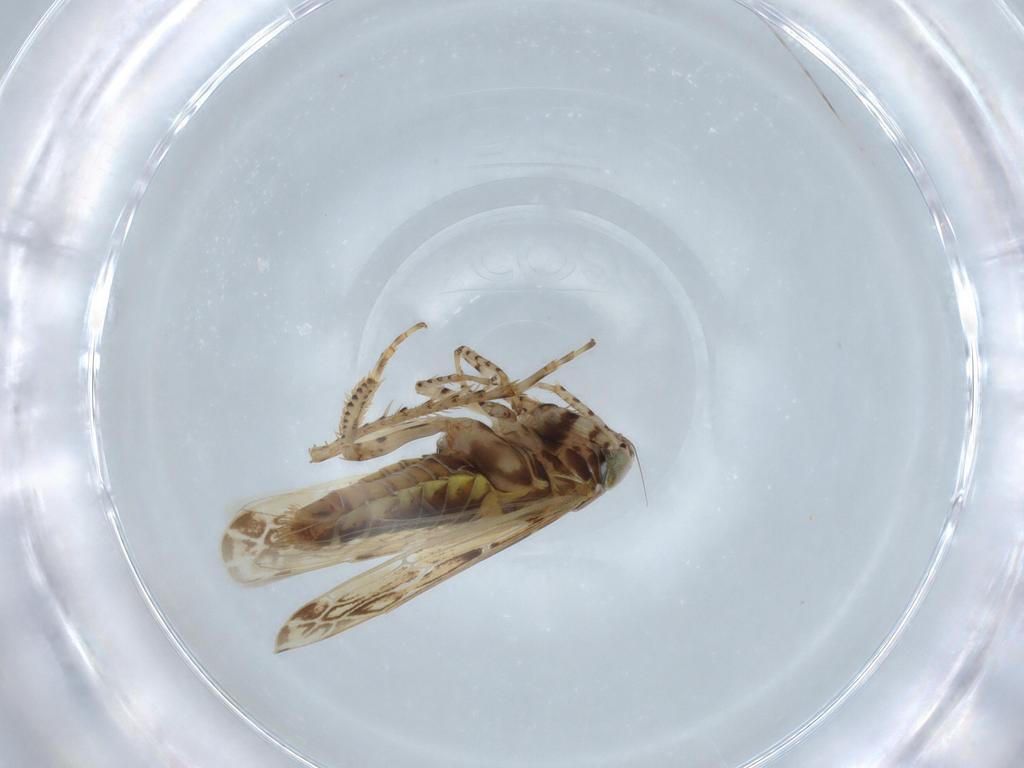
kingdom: Animalia
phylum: Arthropoda
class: Insecta
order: Hemiptera
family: Cicadellidae
